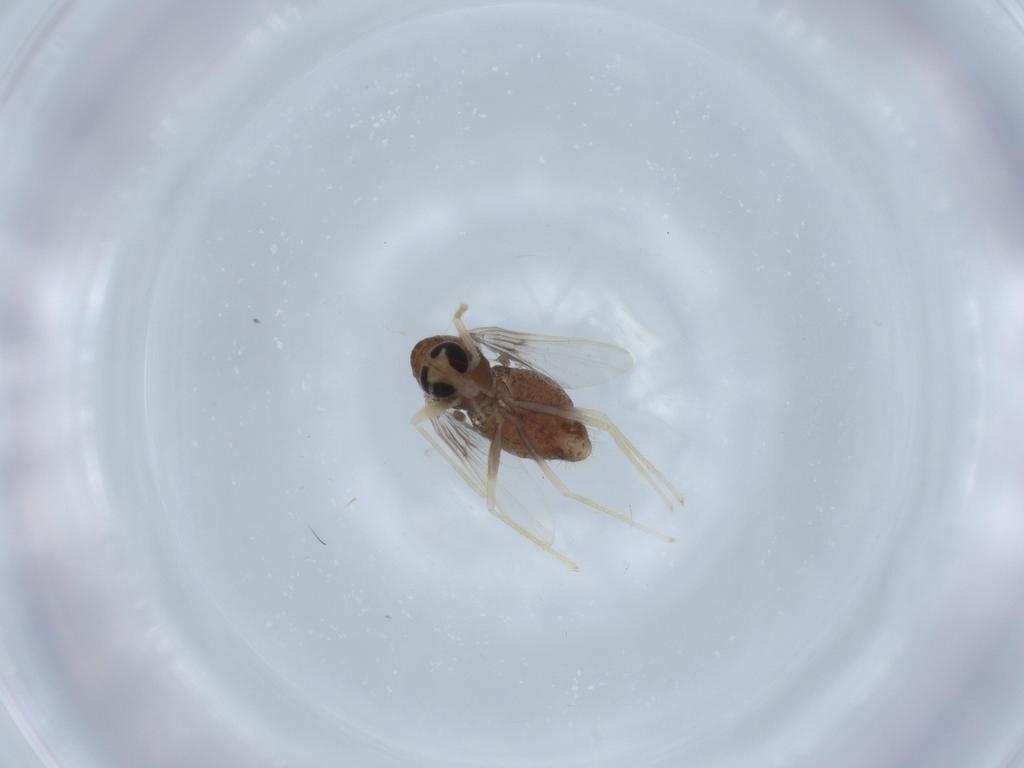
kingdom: Animalia
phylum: Arthropoda
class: Insecta
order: Diptera
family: Chironomidae
